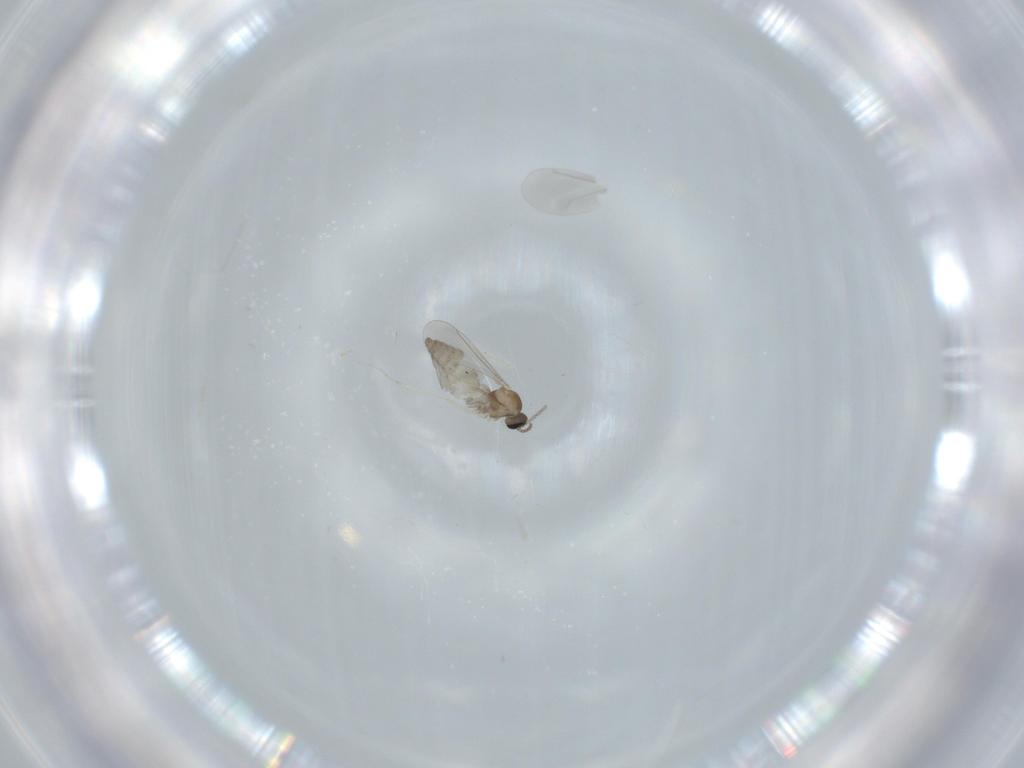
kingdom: Animalia
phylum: Arthropoda
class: Insecta
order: Diptera
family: Cecidomyiidae
